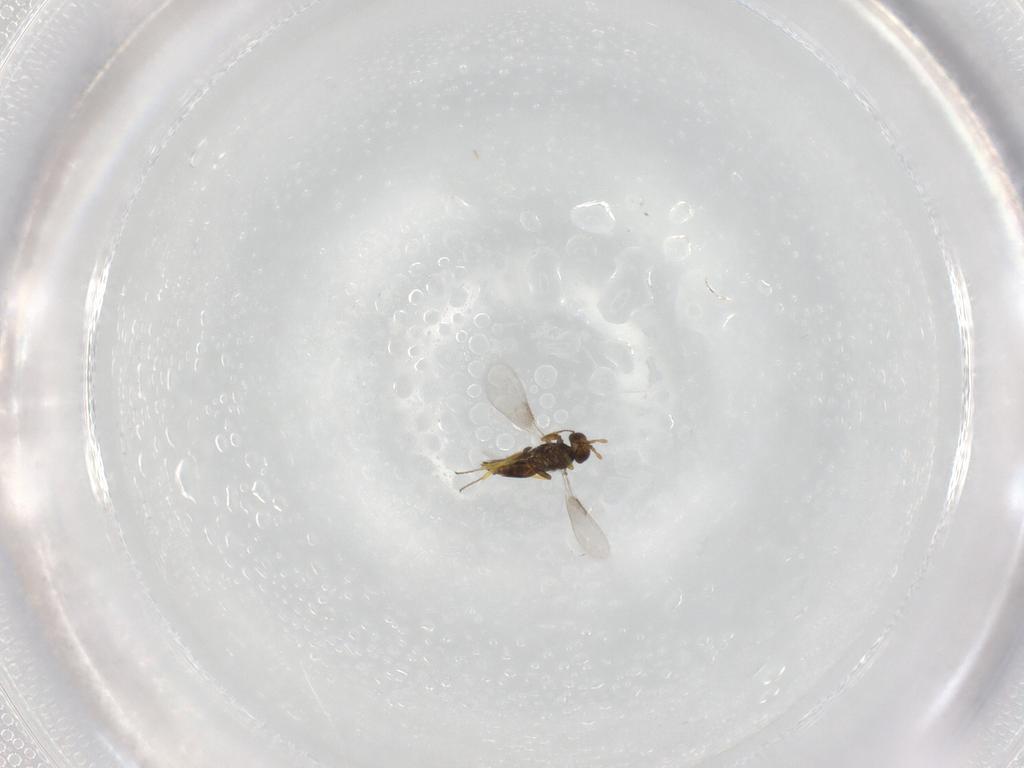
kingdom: Animalia
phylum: Arthropoda
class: Insecta
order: Hymenoptera
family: Aphelinidae
